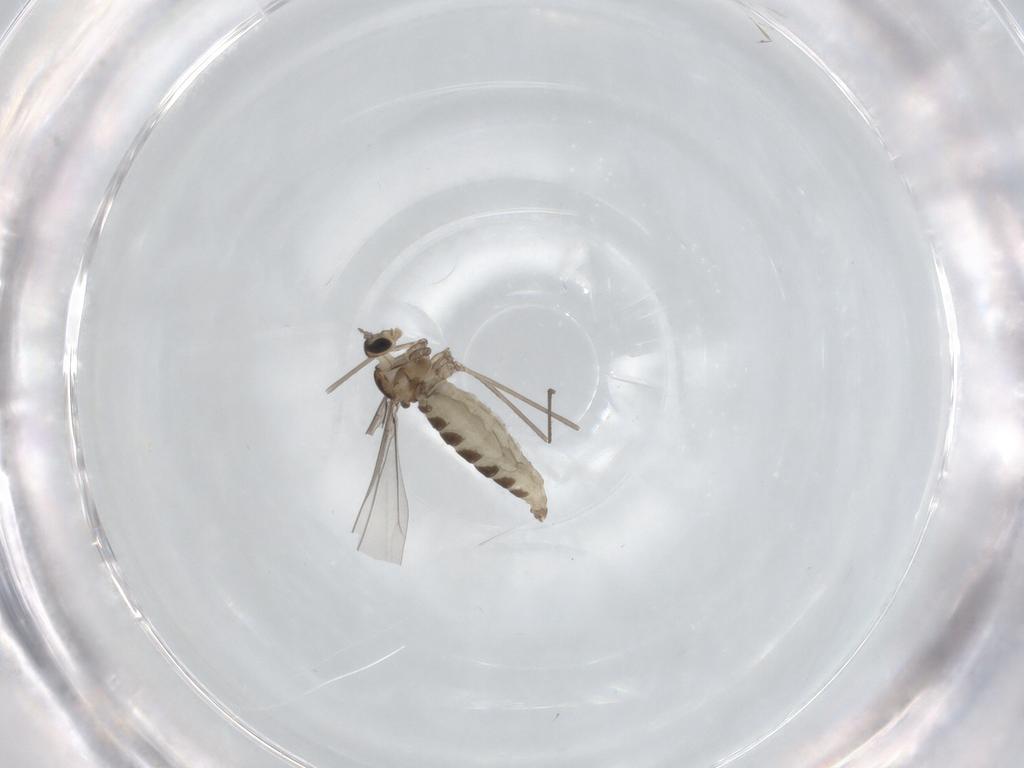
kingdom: Animalia
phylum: Arthropoda
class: Insecta
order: Diptera
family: Cecidomyiidae
